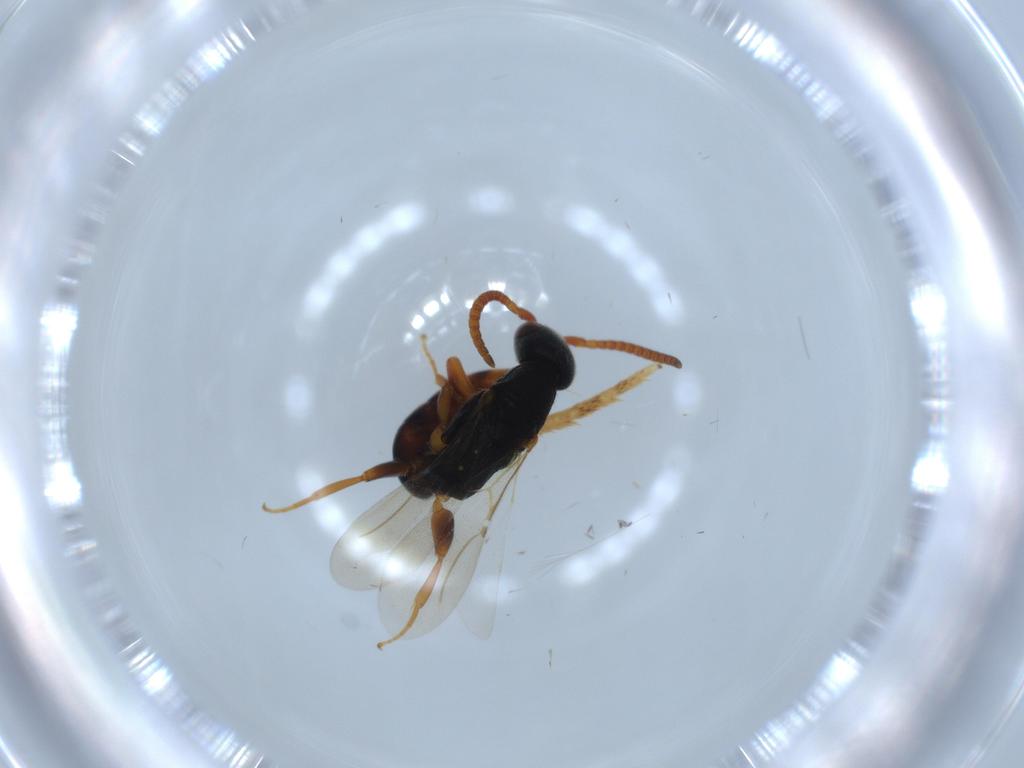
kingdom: Animalia
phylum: Arthropoda
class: Insecta
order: Hymenoptera
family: Bethylidae
